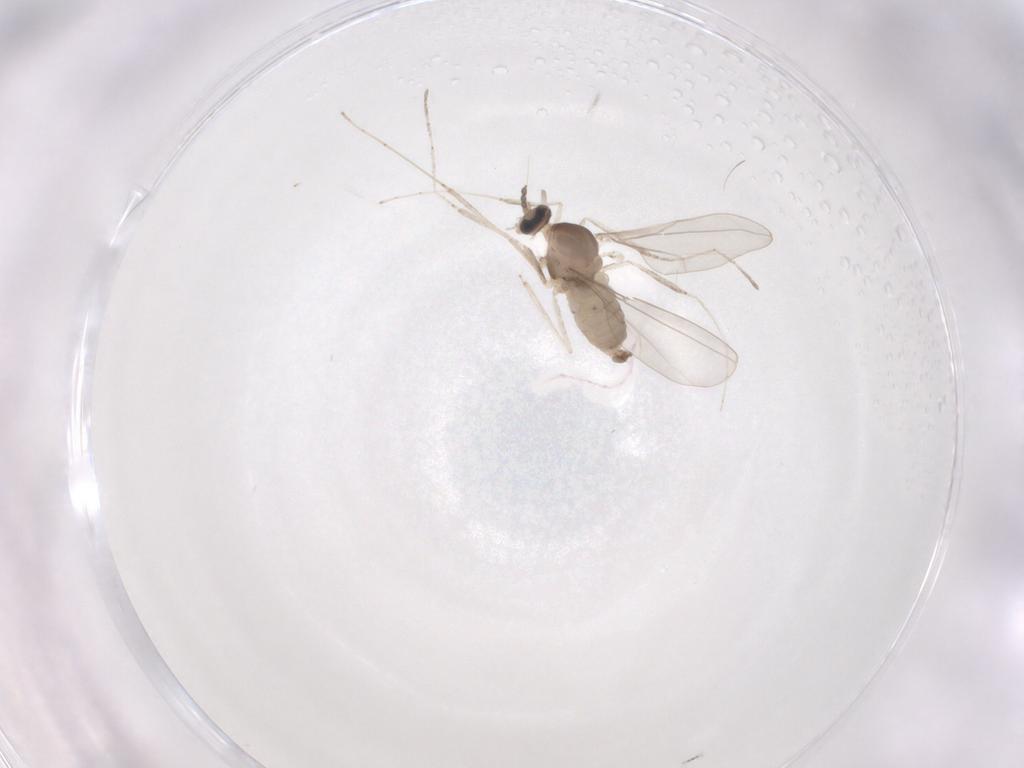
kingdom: Animalia
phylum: Arthropoda
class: Insecta
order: Diptera
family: Cecidomyiidae
